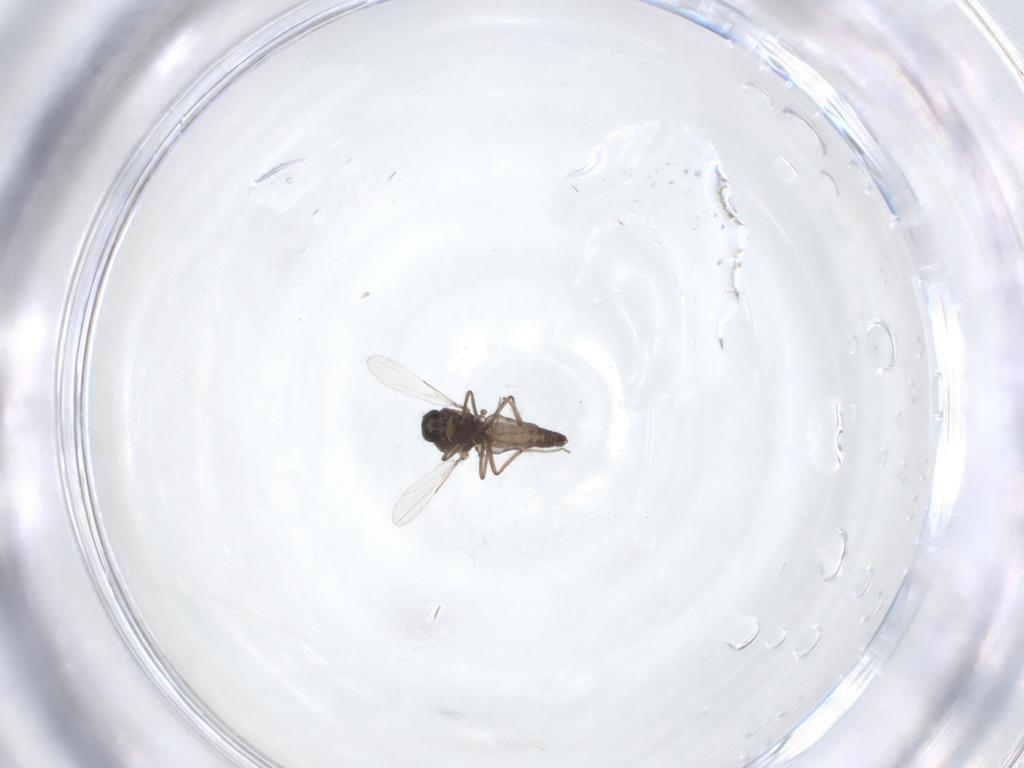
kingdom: Animalia
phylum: Arthropoda
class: Insecta
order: Diptera
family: Ceratopogonidae
